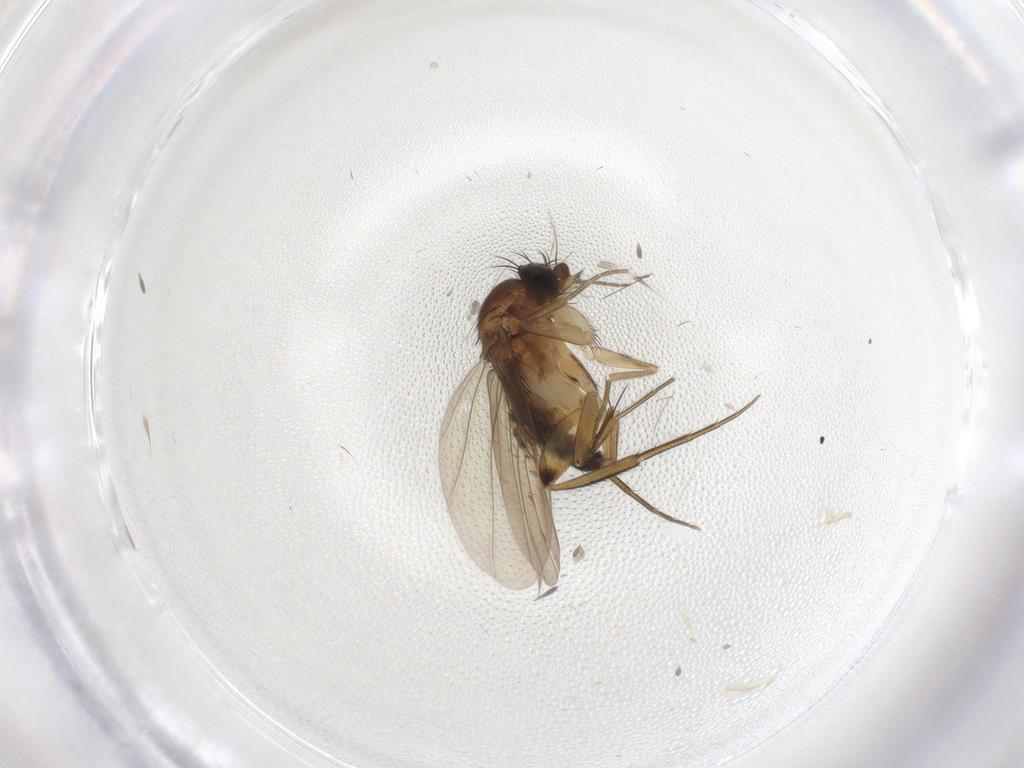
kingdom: Animalia
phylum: Arthropoda
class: Insecta
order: Diptera
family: Phoridae
